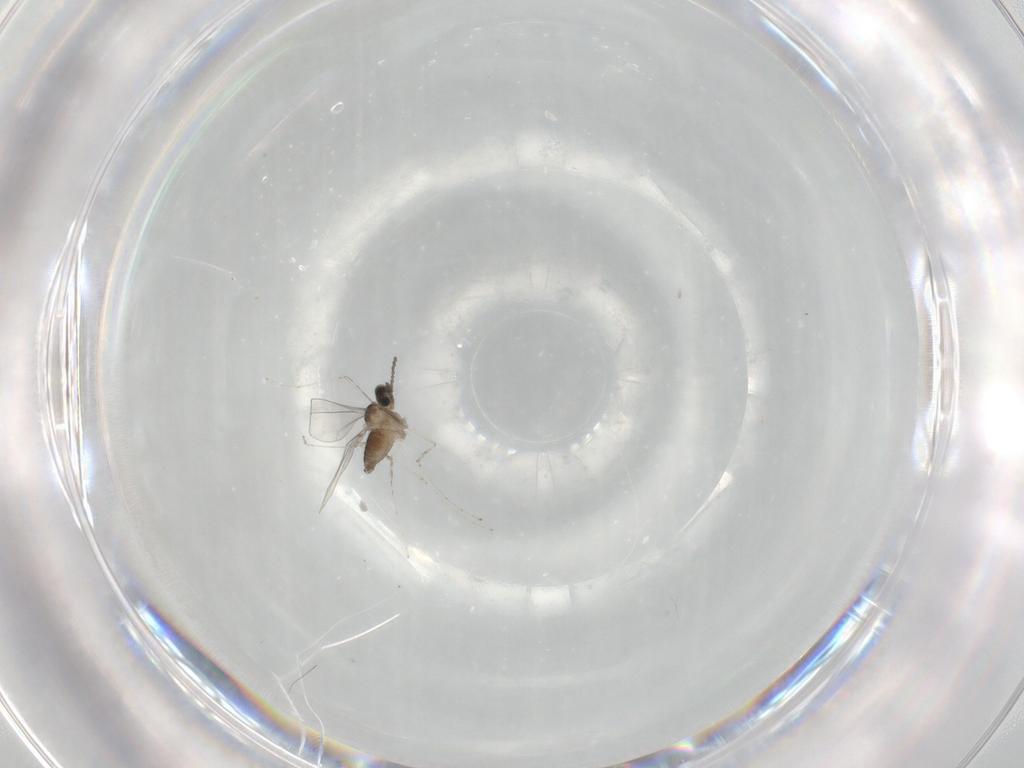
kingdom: Animalia
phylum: Arthropoda
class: Insecta
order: Diptera
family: Cecidomyiidae
